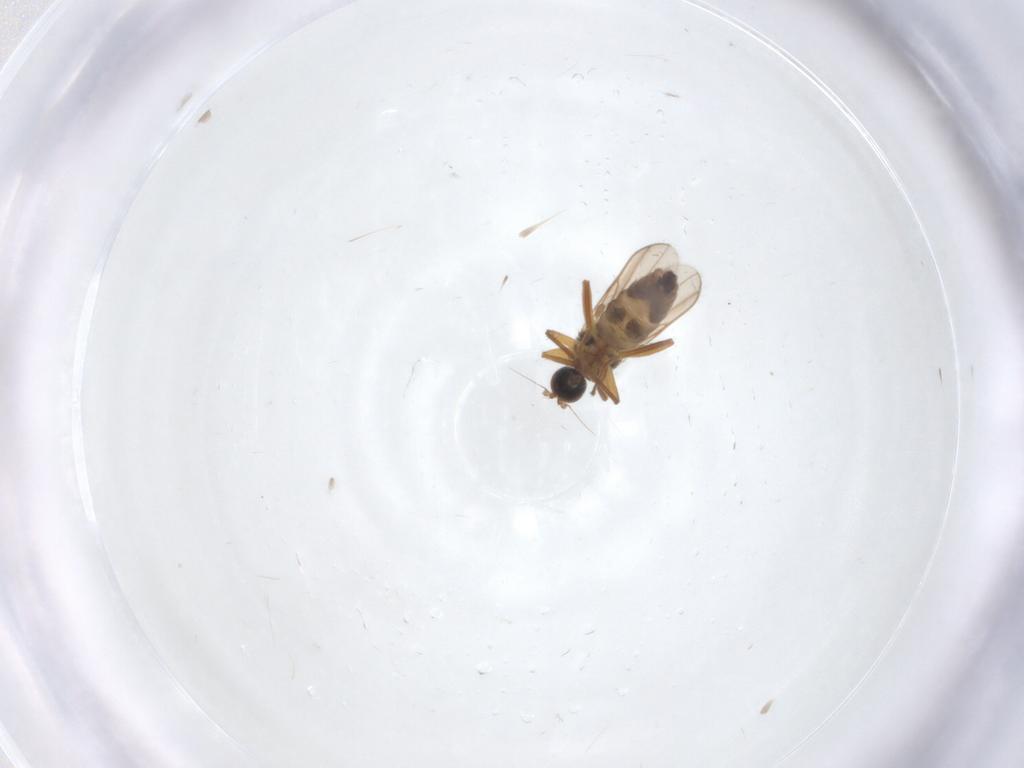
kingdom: Animalia
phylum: Arthropoda
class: Insecta
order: Diptera
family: Hybotidae
